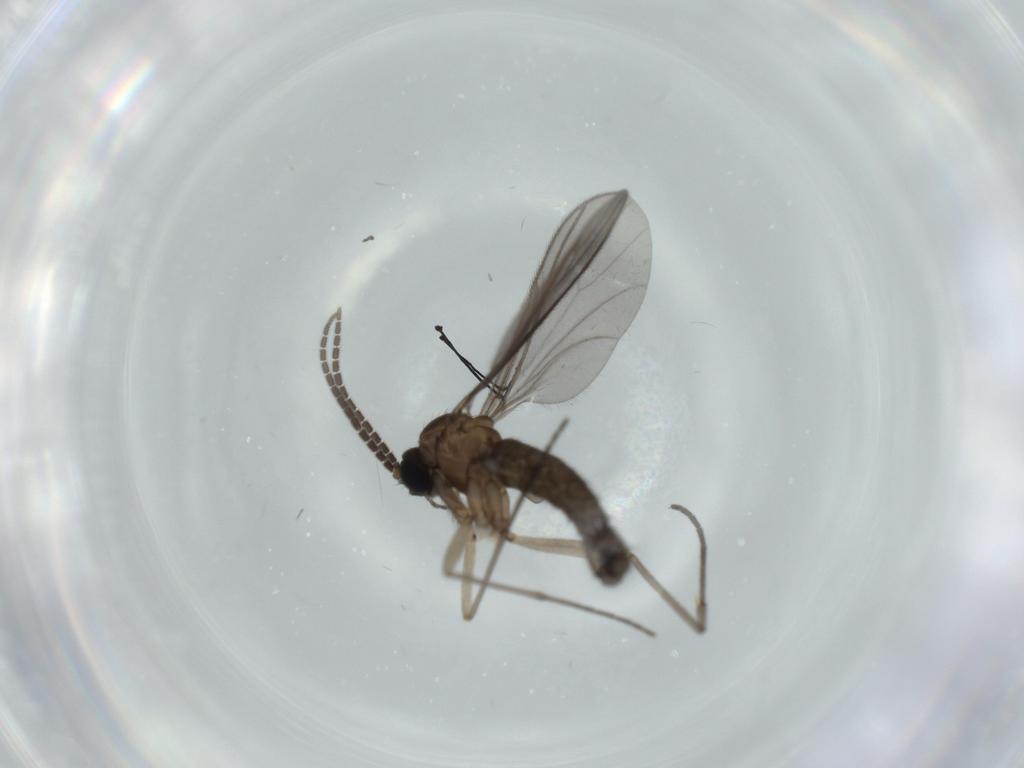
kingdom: Animalia
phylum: Arthropoda
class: Insecta
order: Diptera
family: Sciaridae
